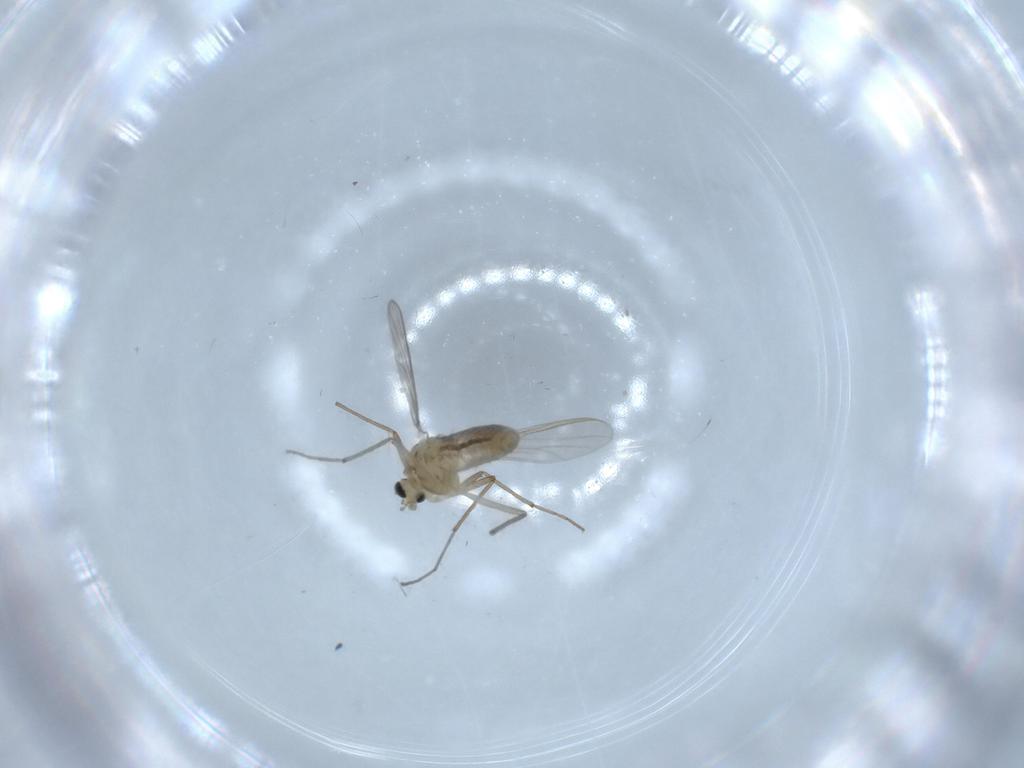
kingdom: Animalia
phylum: Arthropoda
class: Insecta
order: Diptera
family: Chironomidae
